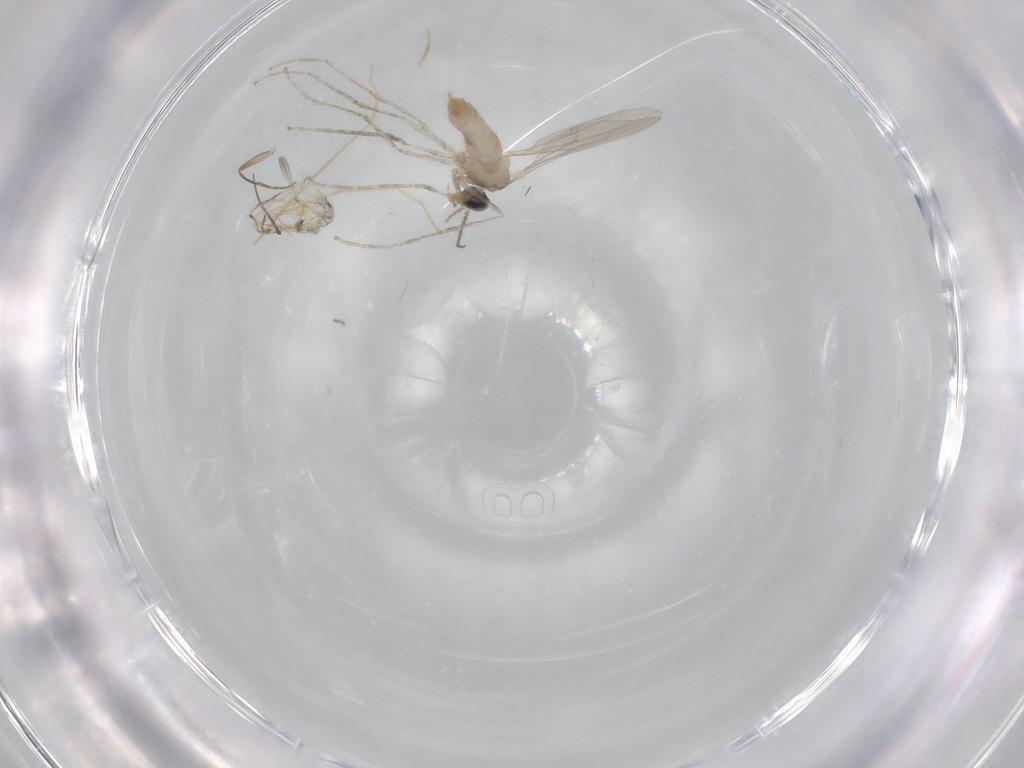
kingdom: Animalia
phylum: Arthropoda
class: Insecta
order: Diptera
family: Cecidomyiidae
